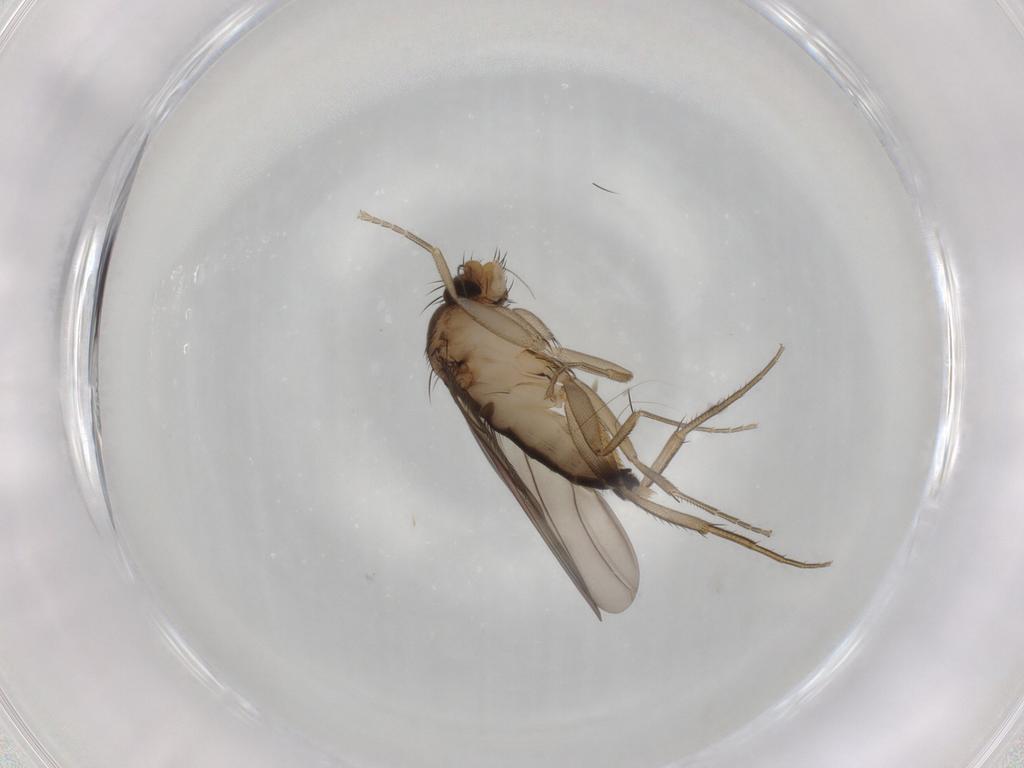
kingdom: Animalia
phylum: Arthropoda
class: Insecta
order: Diptera
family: Phoridae
